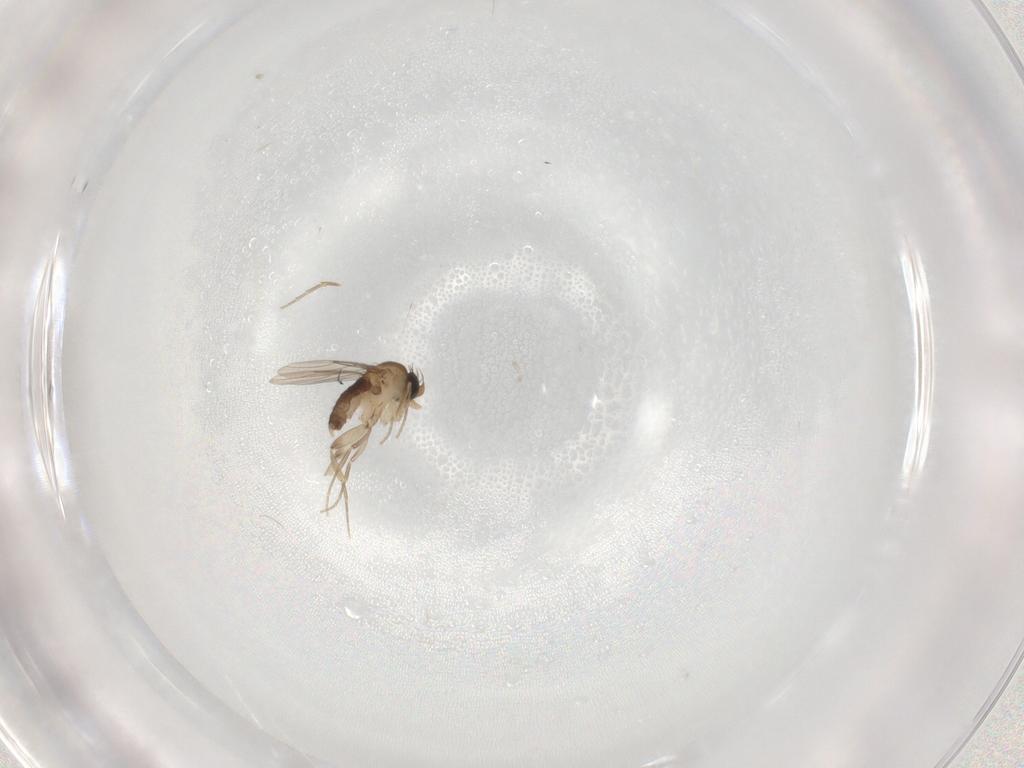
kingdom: Animalia
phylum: Arthropoda
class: Insecta
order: Diptera
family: Phoridae
